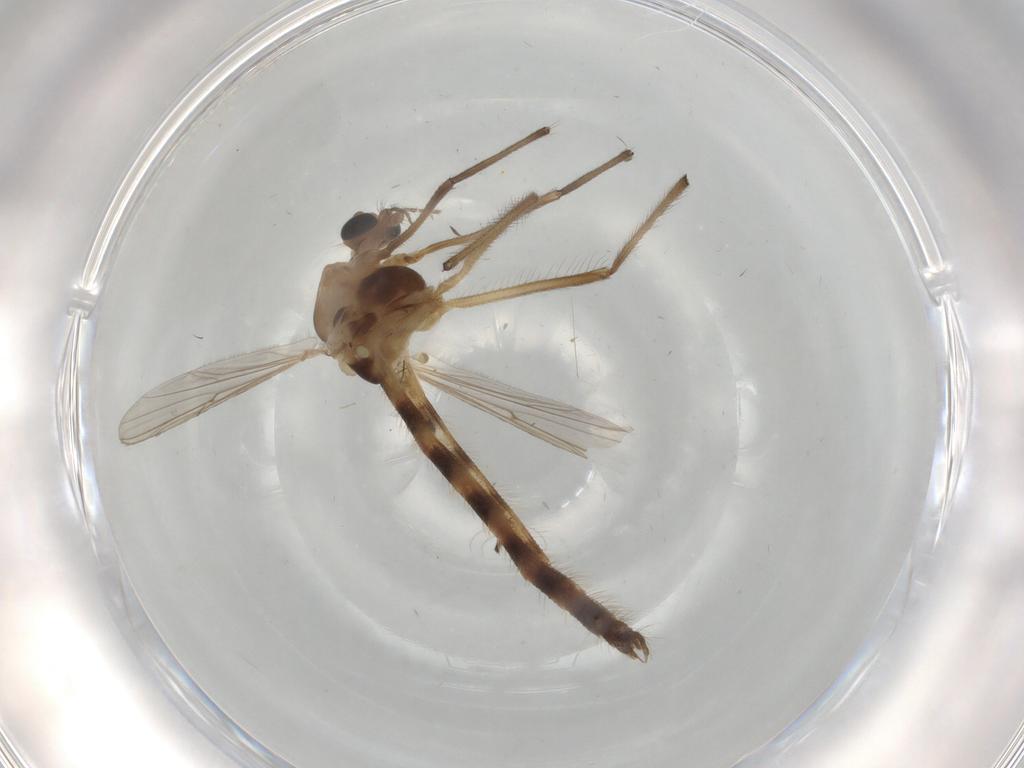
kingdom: Animalia
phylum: Arthropoda
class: Insecta
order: Diptera
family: Chironomidae
